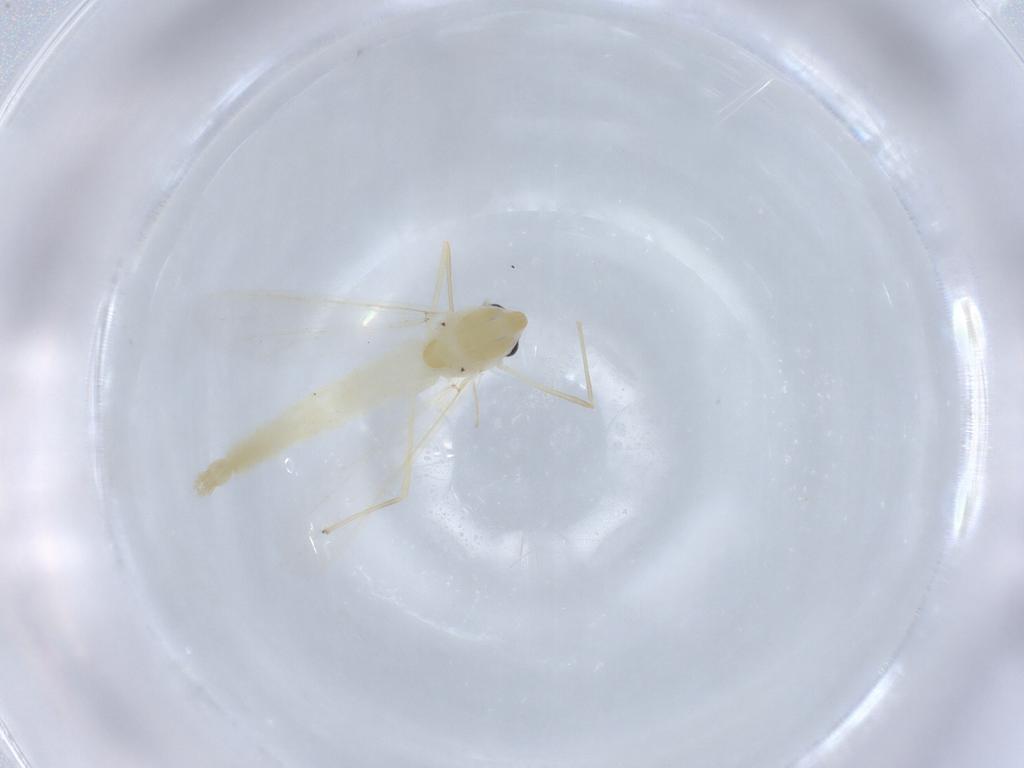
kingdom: Animalia
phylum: Arthropoda
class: Insecta
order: Diptera
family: Chironomidae
